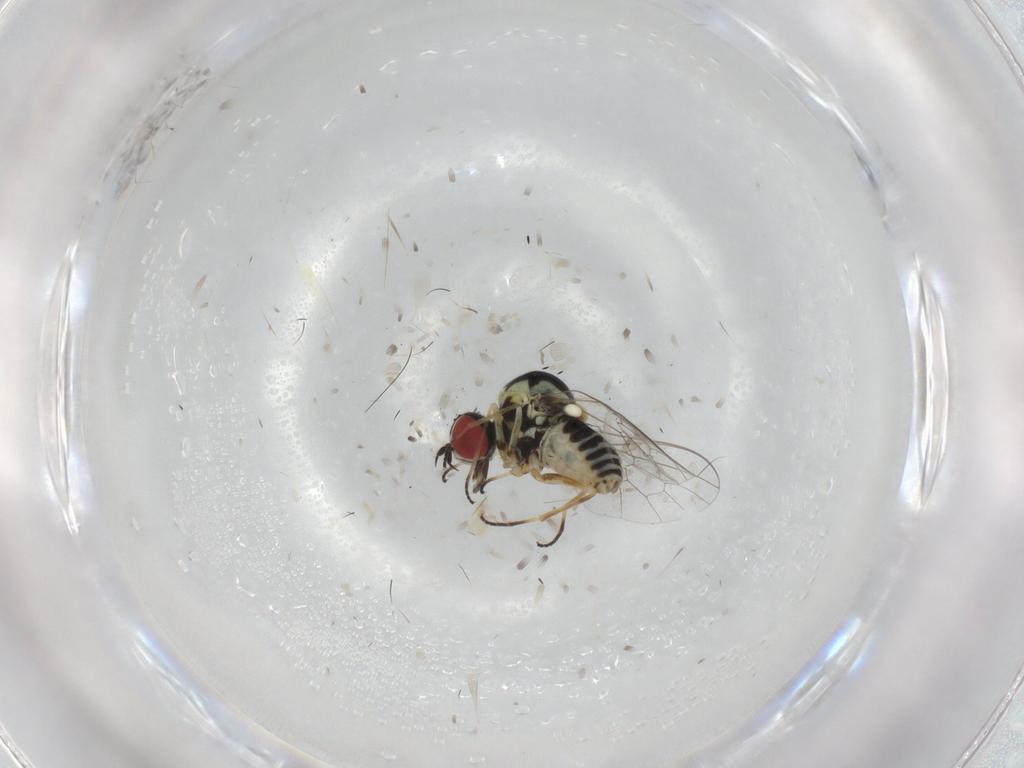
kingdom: Animalia
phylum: Arthropoda
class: Insecta
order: Diptera
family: Bombyliidae
